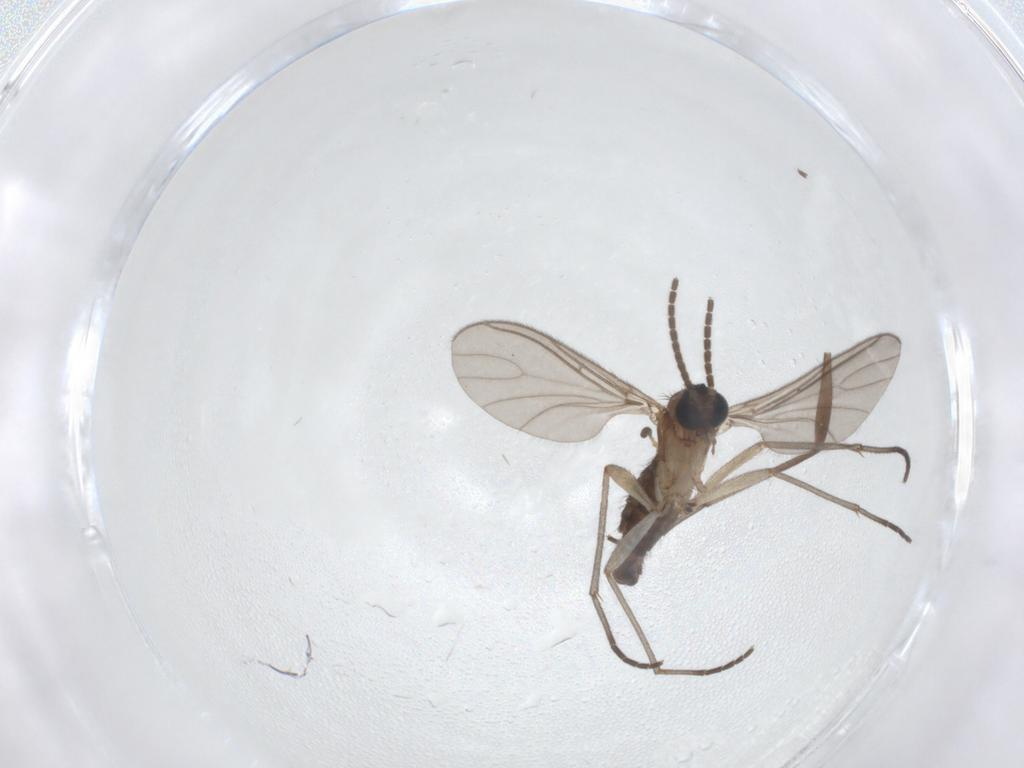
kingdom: Animalia
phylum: Arthropoda
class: Insecta
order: Diptera
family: Sciaridae
